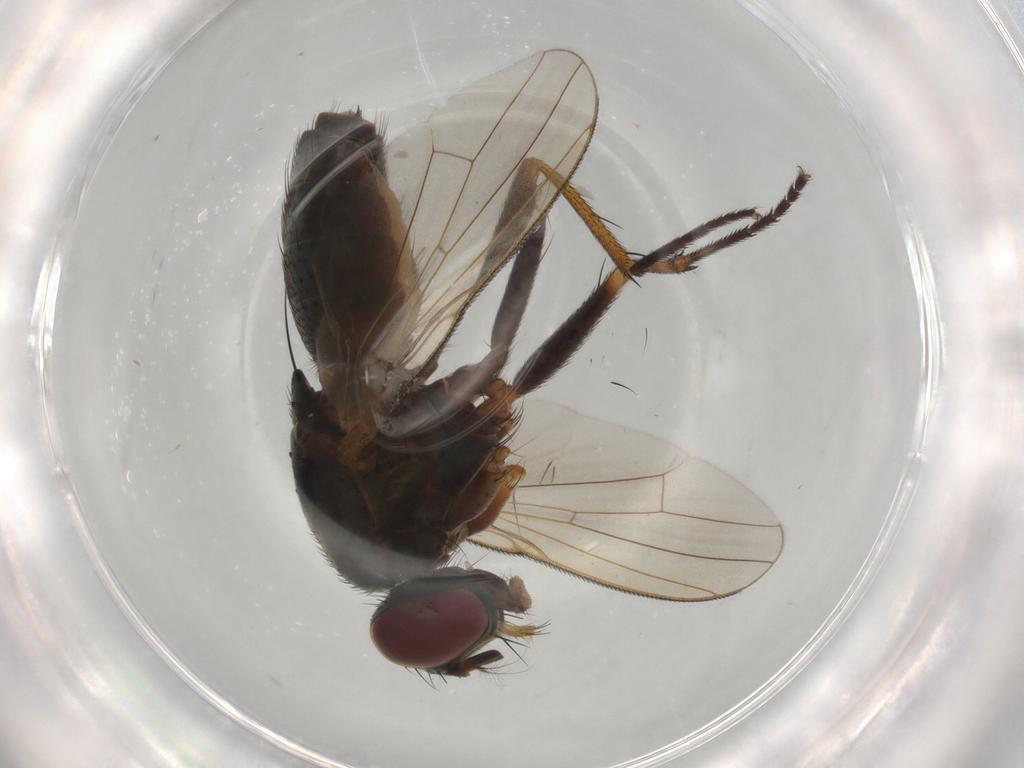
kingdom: Animalia
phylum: Arthropoda
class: Insecta
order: Diptera
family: Muscidae
